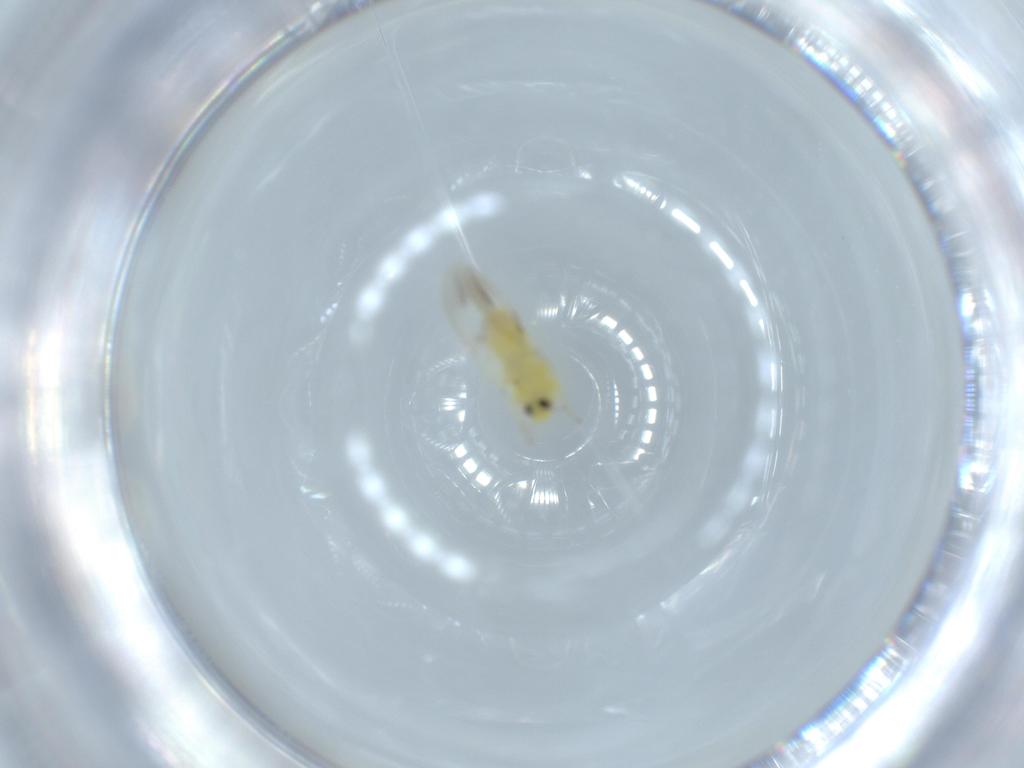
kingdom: Animalia
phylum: Arthropoda
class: Insecta
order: Hemiptera
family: Aleyrodidae
